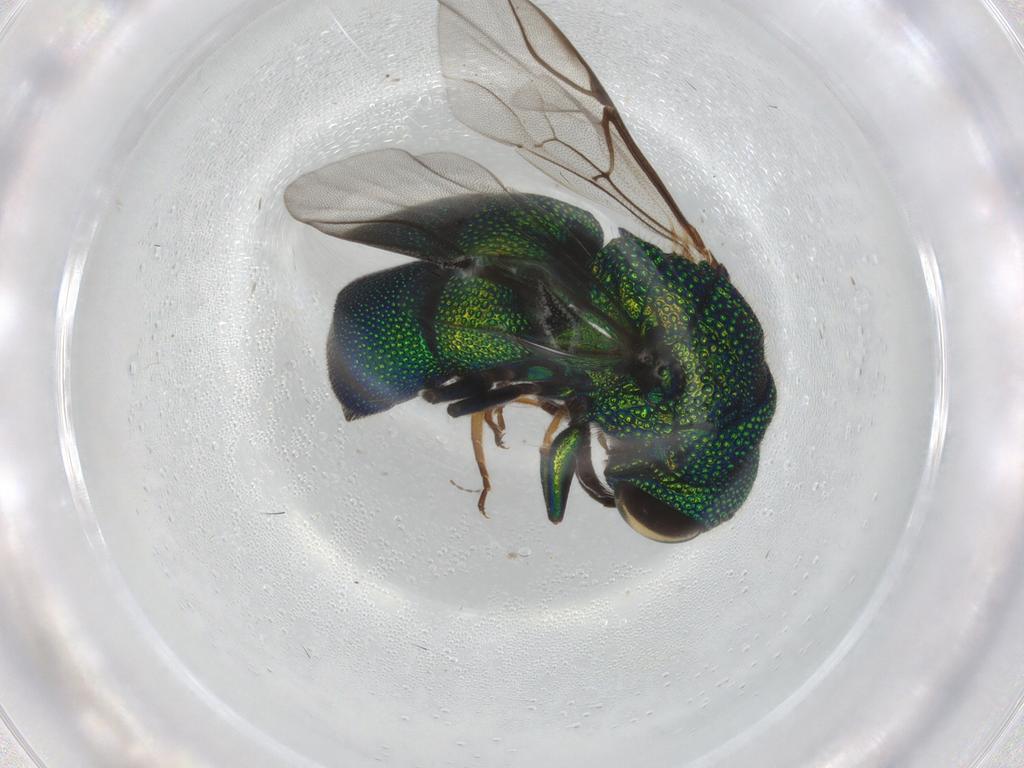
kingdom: Animalia
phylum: Arthropoda
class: Insecta
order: Hymenoptera
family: Chrysididae
